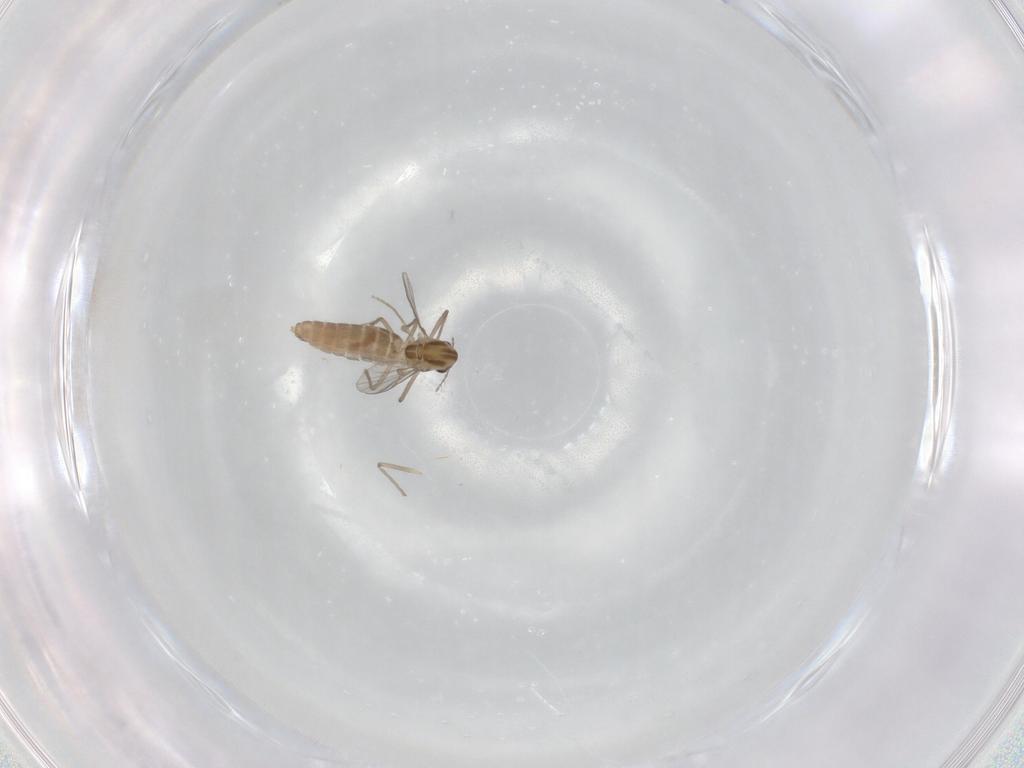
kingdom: Animalia
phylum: Arthropoda
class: Insecta
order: Diptera
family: Chironomidae
